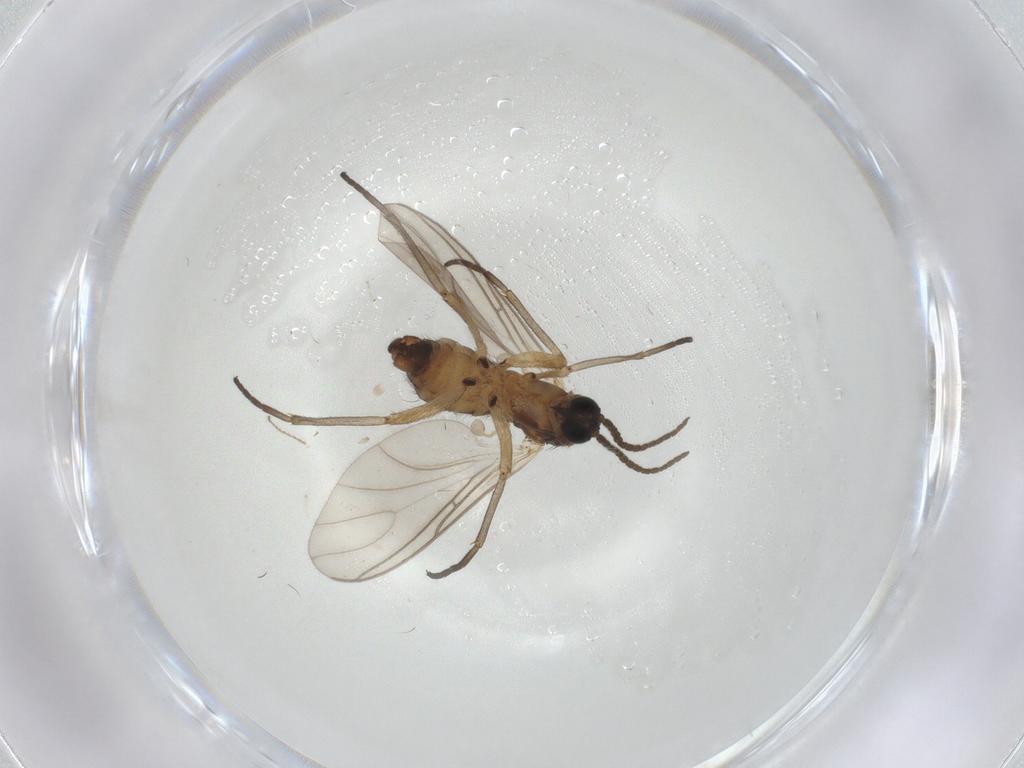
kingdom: Animalia
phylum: Arthropoda
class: Insecta
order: Diptera
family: Sciaridae
